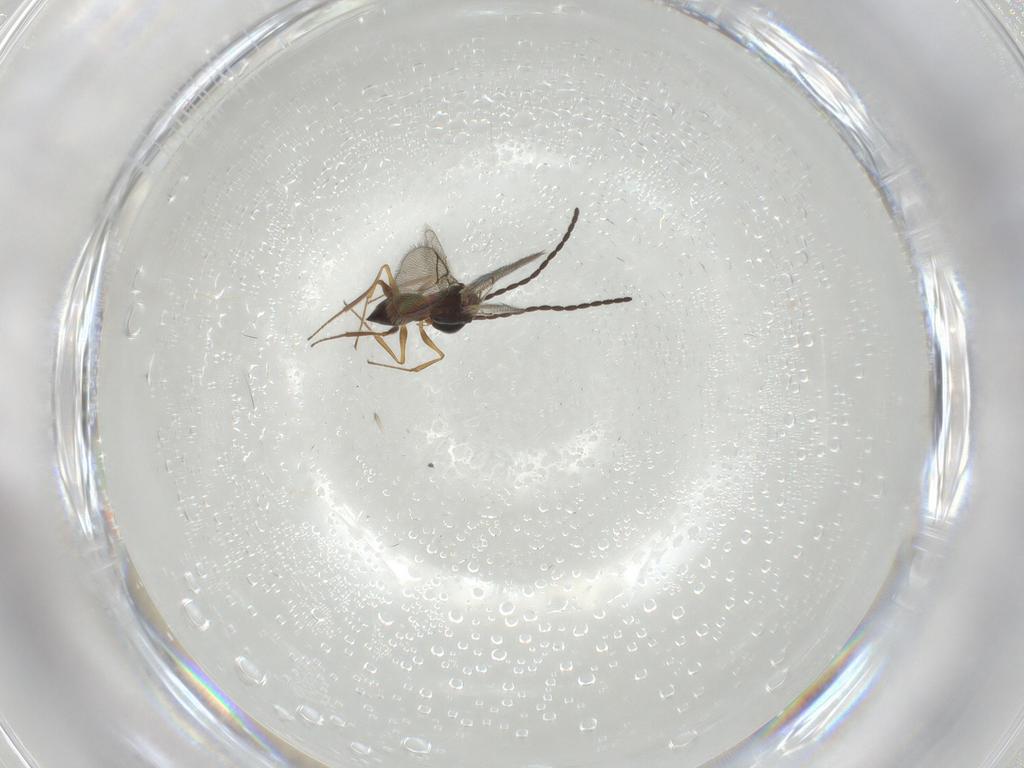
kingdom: Animalia
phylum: Arthropoda
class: Insecta
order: Hymenoptera
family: Figitidae
